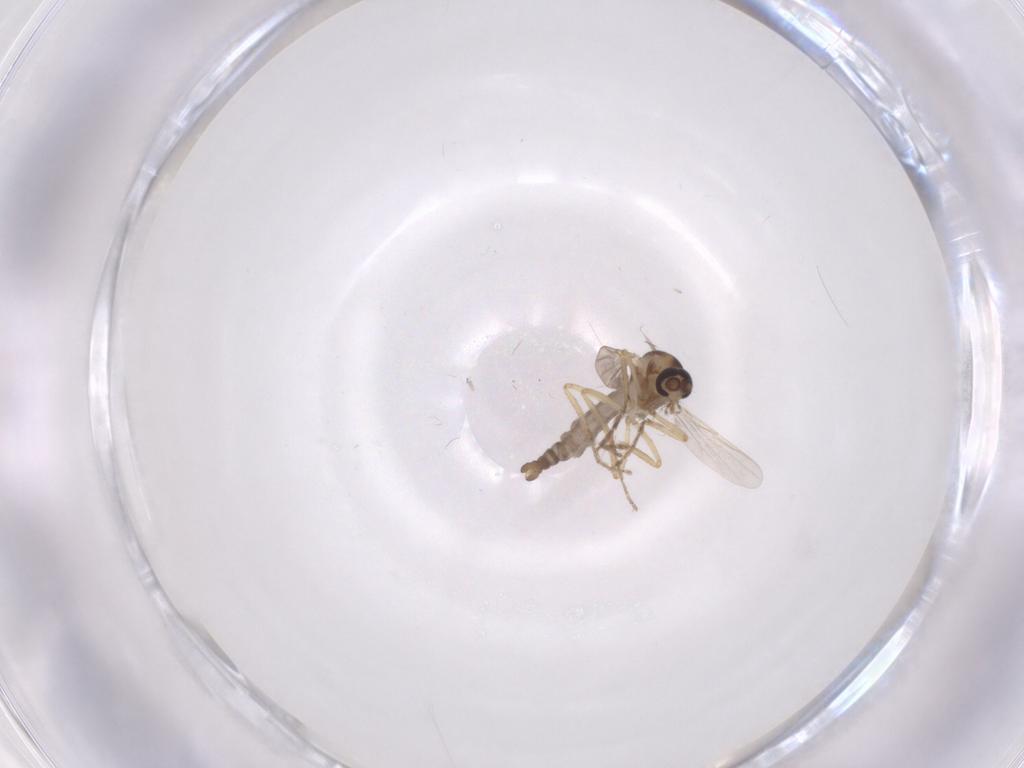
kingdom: Animalia
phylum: Arthropoda
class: Insecta
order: Diptera
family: Ceratopogonidae
